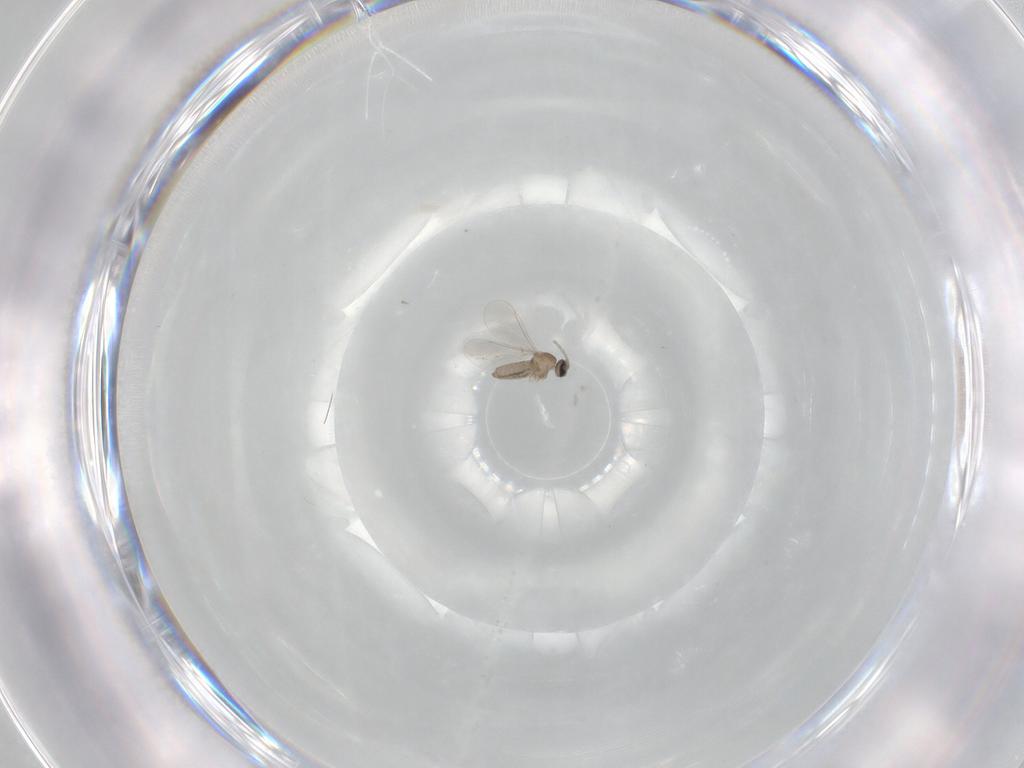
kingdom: Animalia
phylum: Arthropoda
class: Insecta
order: Diptera
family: Cecidomyiidae
